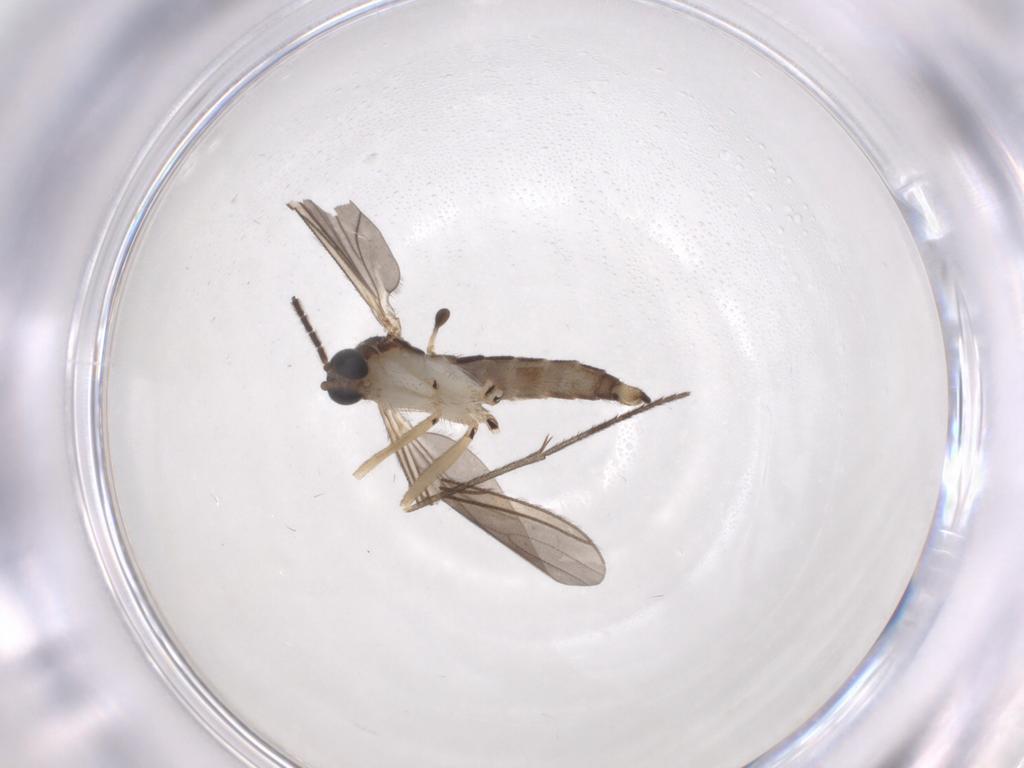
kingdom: Animalia
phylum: Arthropoda
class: Insecta
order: Diptera
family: Sciaridae
